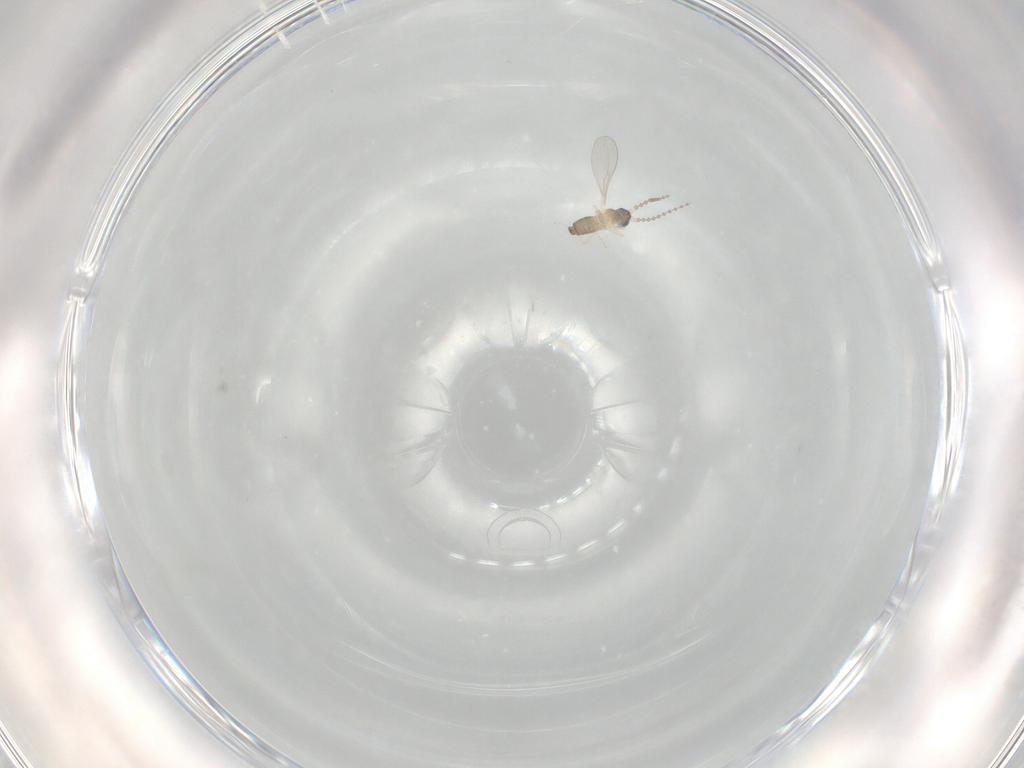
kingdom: Animalia
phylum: Arthropoda
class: Insecta
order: Diptera
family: Cecidomyiidae
